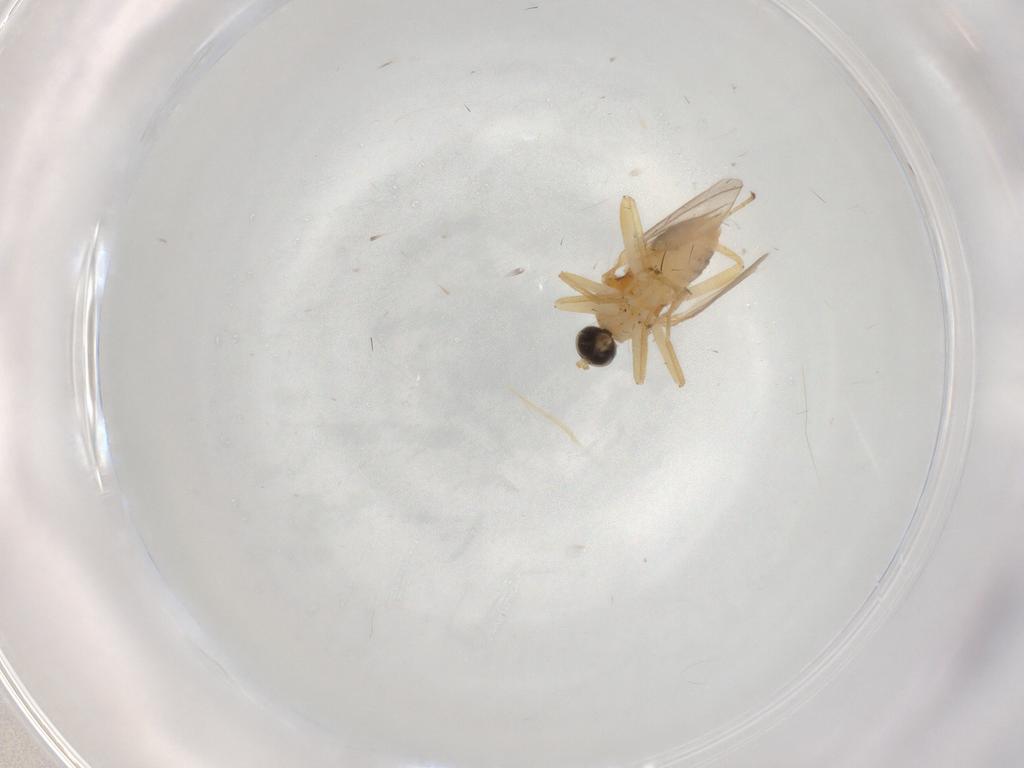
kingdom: Animalia
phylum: Arthropoda
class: Insecta
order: Diptera
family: Hybotidae
